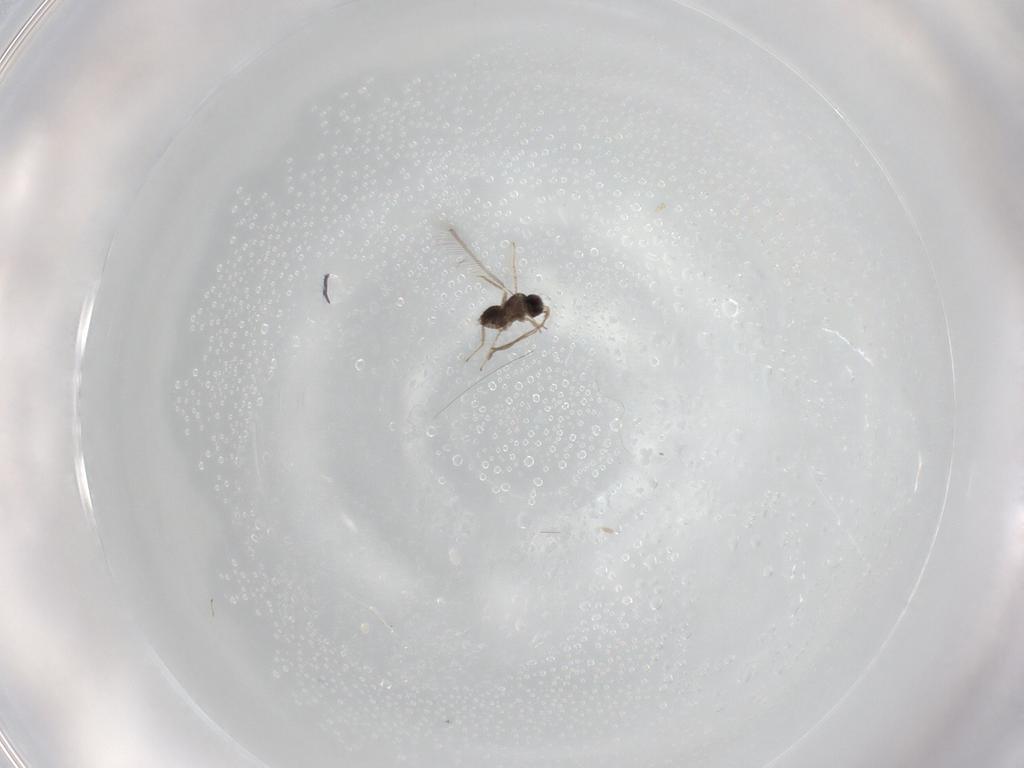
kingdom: Animalia
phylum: Arthropoda
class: Insecta
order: Hymenoptera
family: Mymaridae
